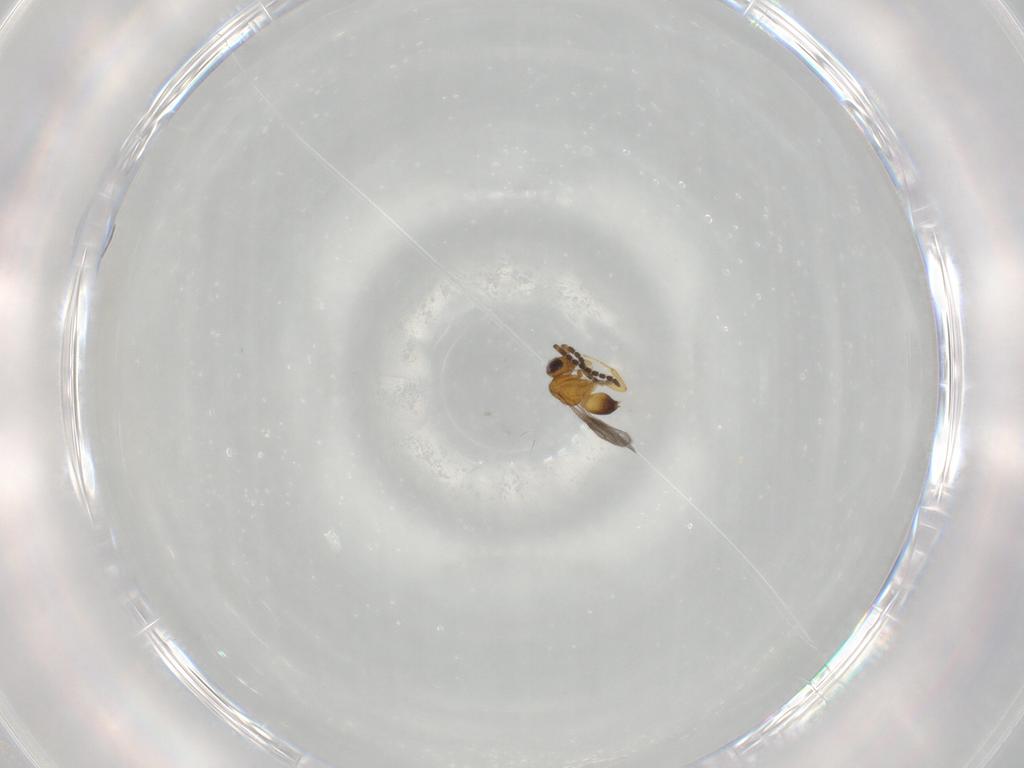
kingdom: Animalia
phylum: Arthropoda
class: Insecta
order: Hymenoptera
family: Ceraphronidae
